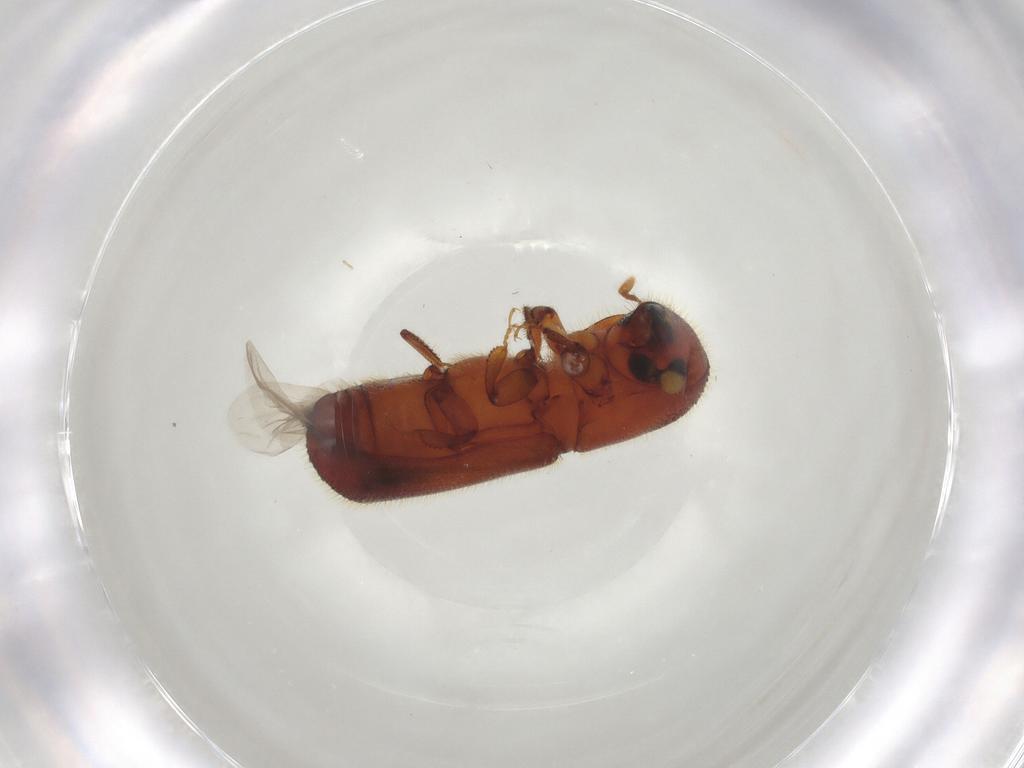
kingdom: Animalia
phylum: Arthropoda
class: Insecta
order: Coleoptera
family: Curculionidae
